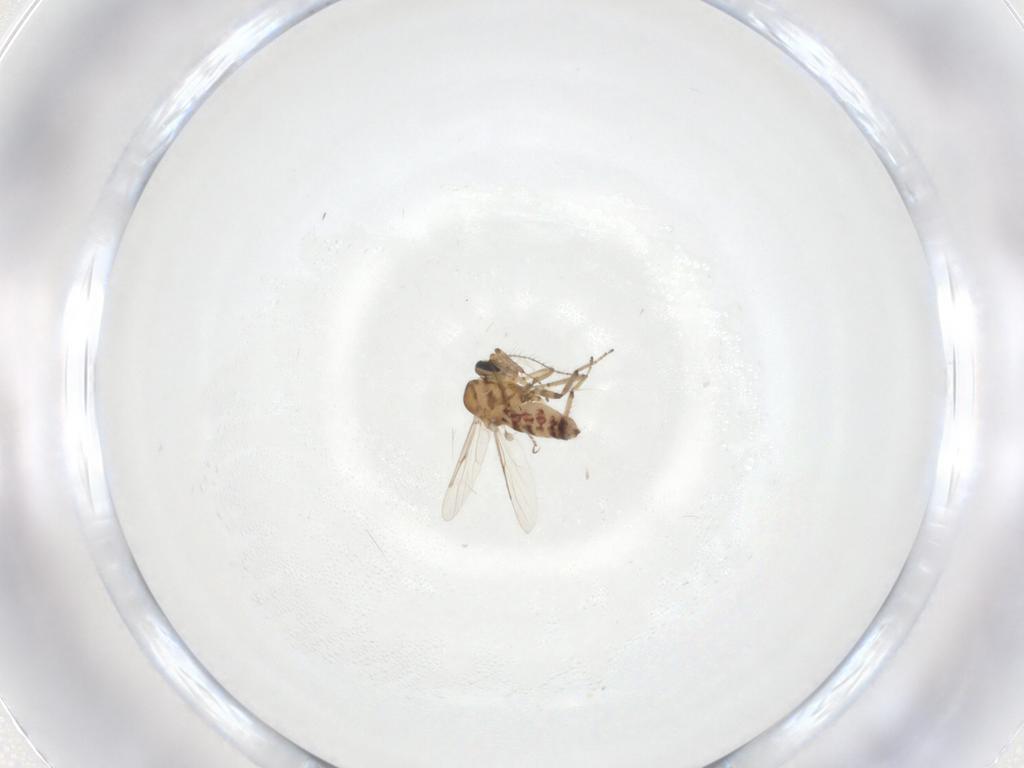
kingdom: Animalia
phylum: Arthropoda
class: Insecta
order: Diptera
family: Ceratopogonidae
